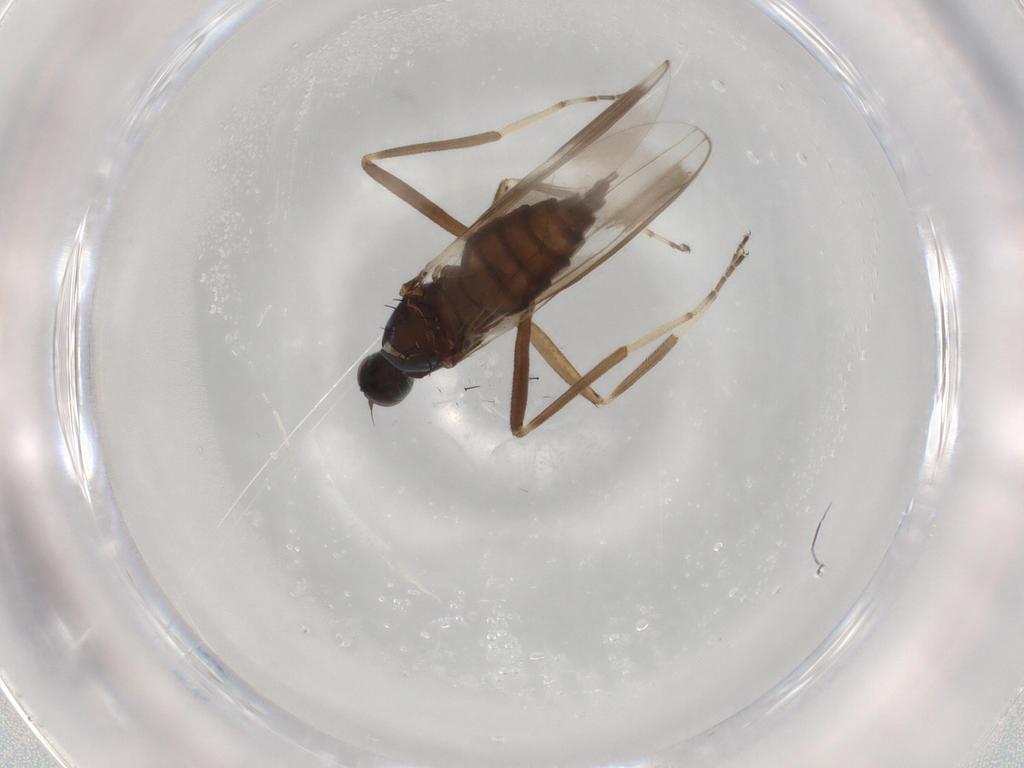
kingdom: Animalia
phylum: Arthropoda
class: Insecta
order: Diptera
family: Hybotidae
